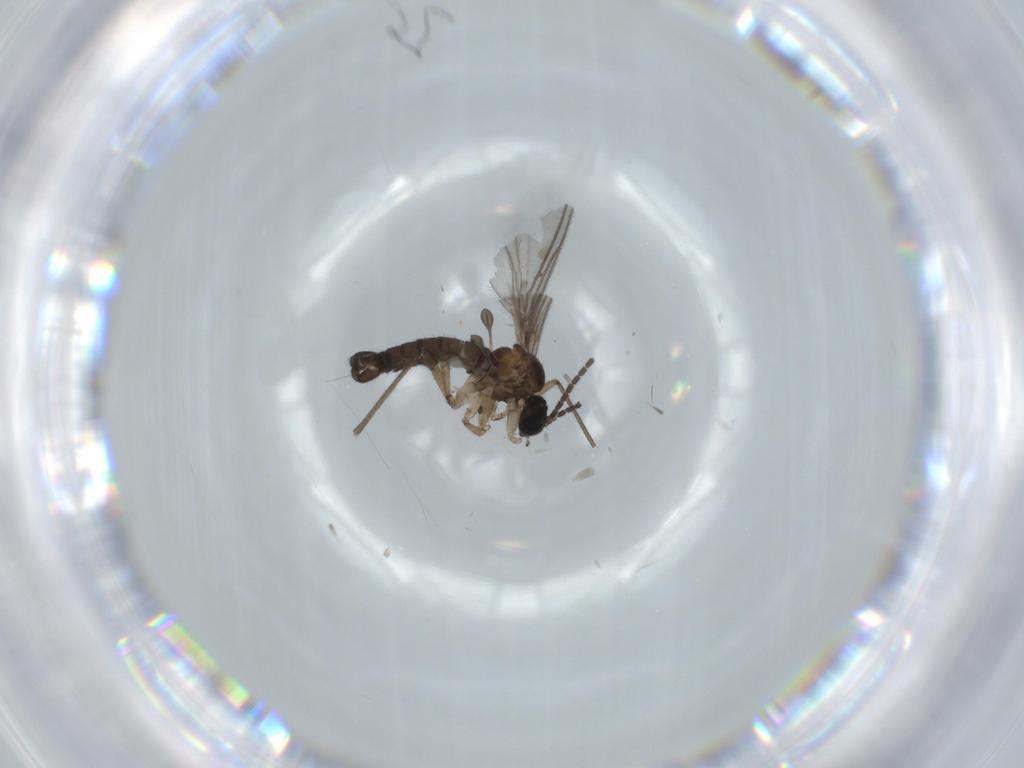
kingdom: Animalia
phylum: Arthropoda
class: Insecta
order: Diptera
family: Sciaridae
